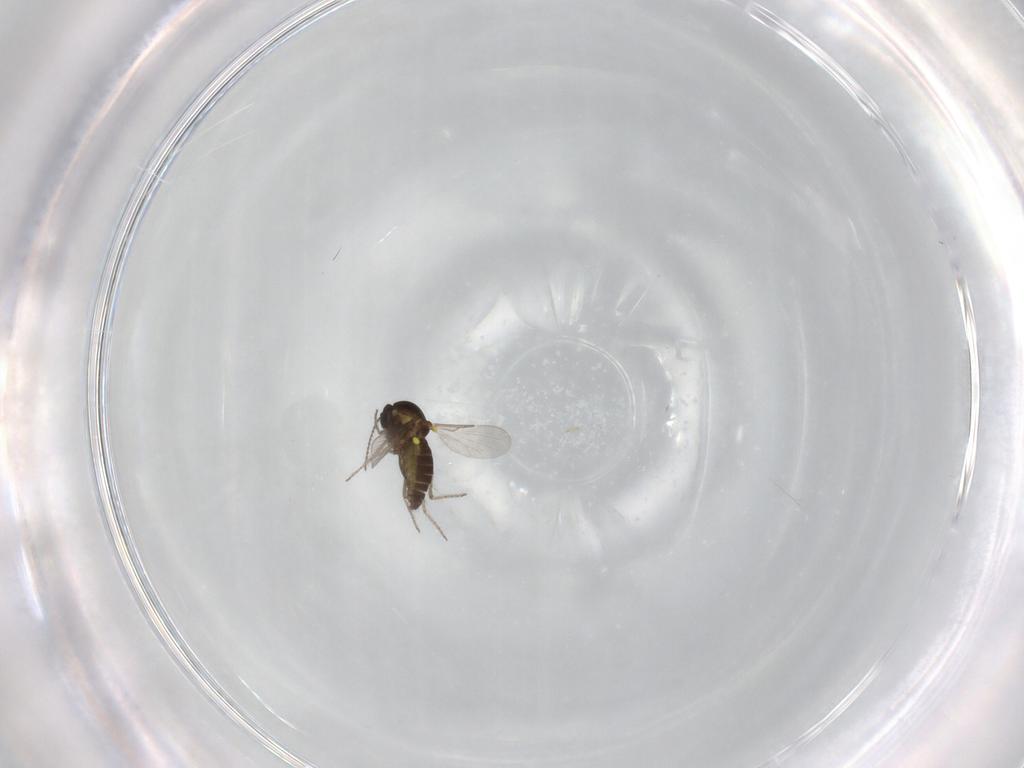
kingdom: Animalia
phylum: Arthropoda
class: Insecta
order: Diptera
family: Ceratopogonidae
